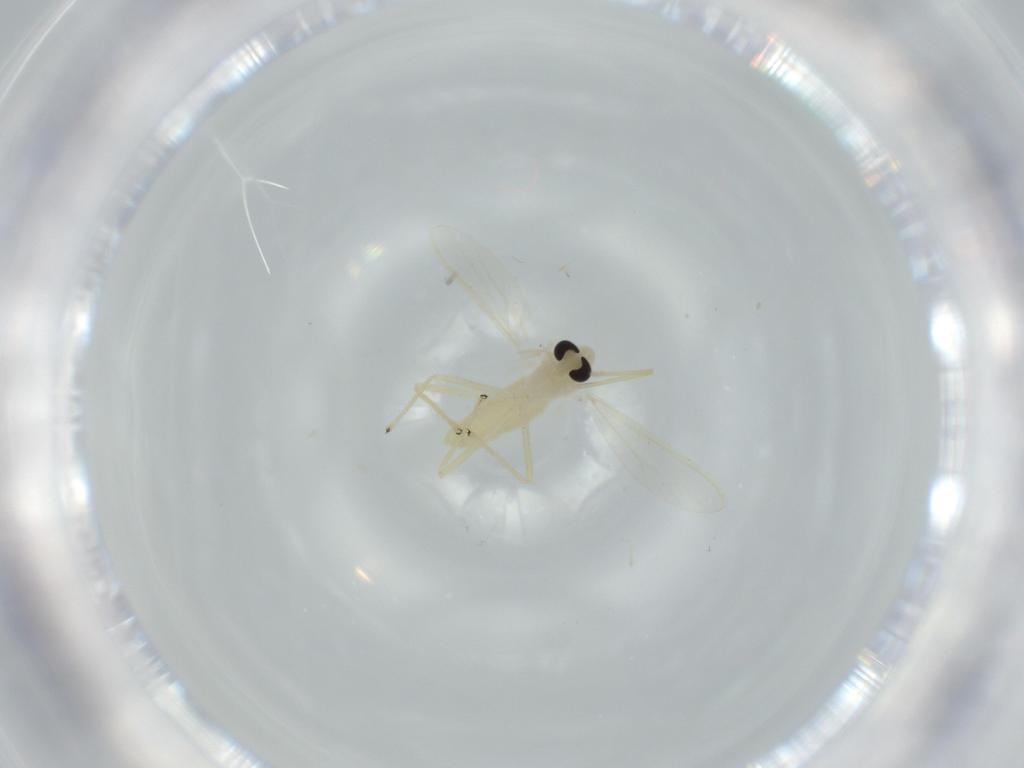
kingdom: Animalia
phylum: Arthropoda
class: Insecta
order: Diptera
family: Chironomidae
